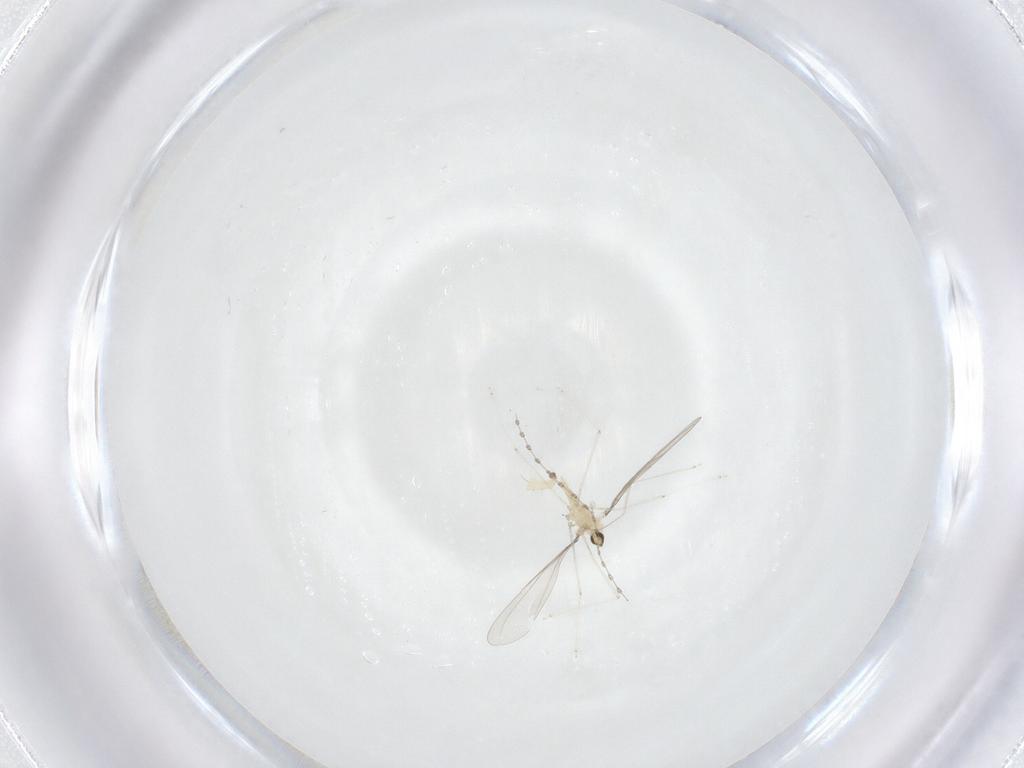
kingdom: Animalia
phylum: Arthropoda
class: Insecta
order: Diptera
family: Cecidomyiidae
